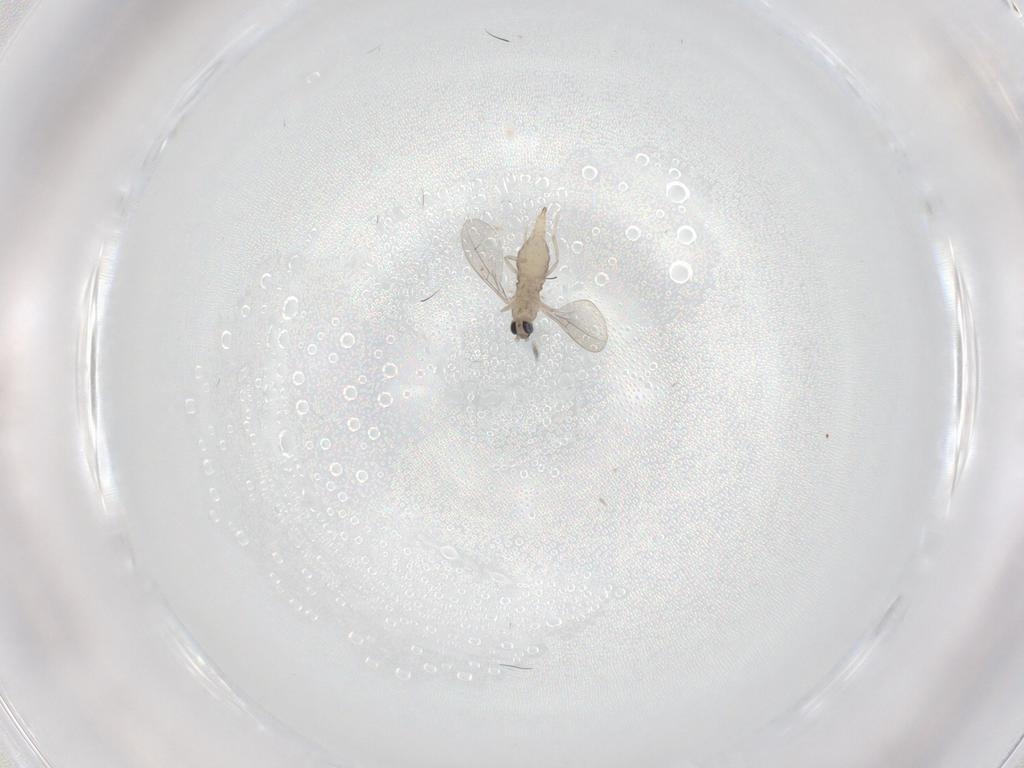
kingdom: Animalia
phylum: Arthropoda
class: Insecta
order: Diptera
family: Cecidomyiidae
